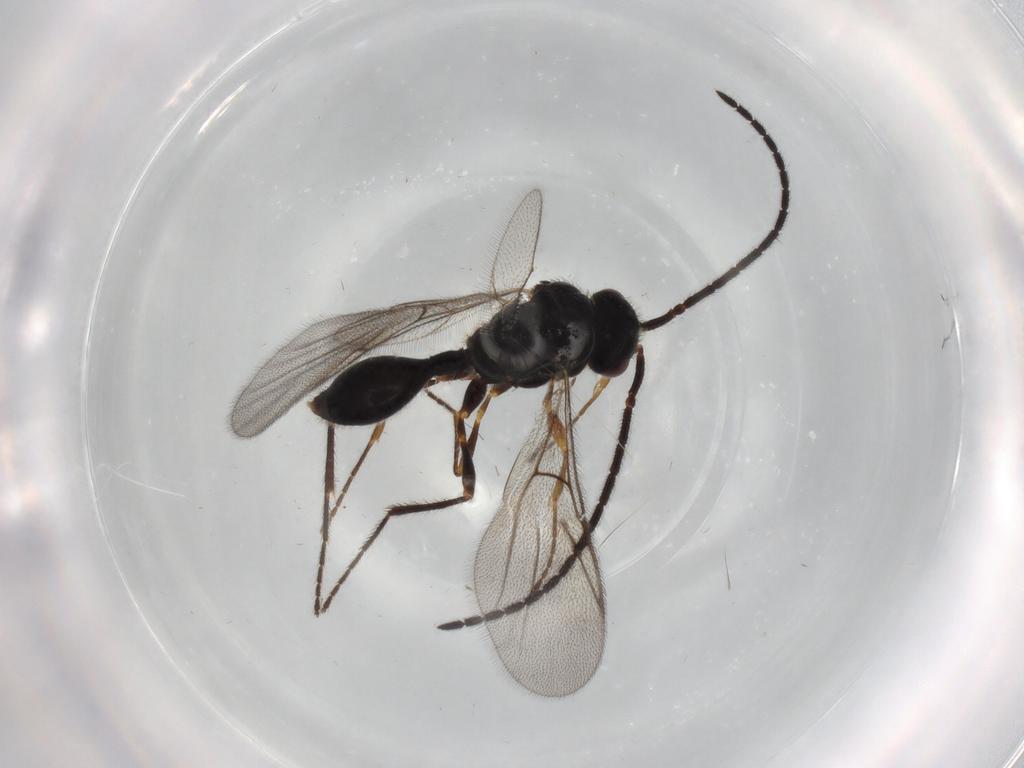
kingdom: Animalia
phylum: Arthropoda
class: Insecta
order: Hymenoptera
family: Diapriidae
